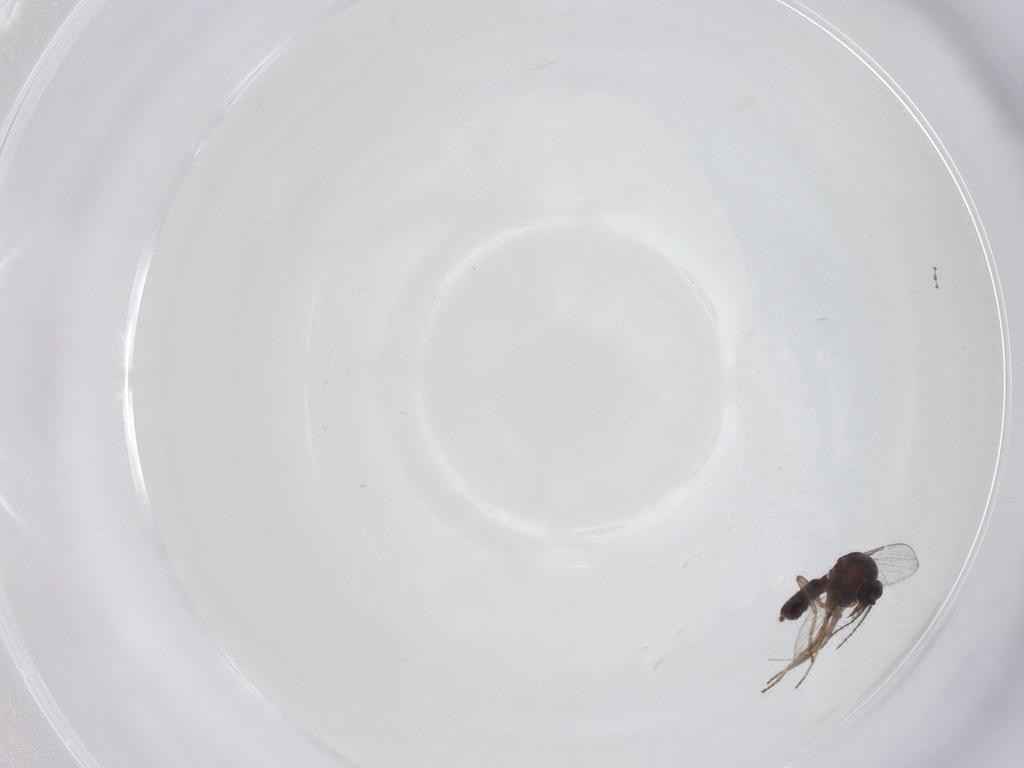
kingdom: Animalia
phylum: Arthropoda
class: Insecta
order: Diptera
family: Ceratopogonidae
